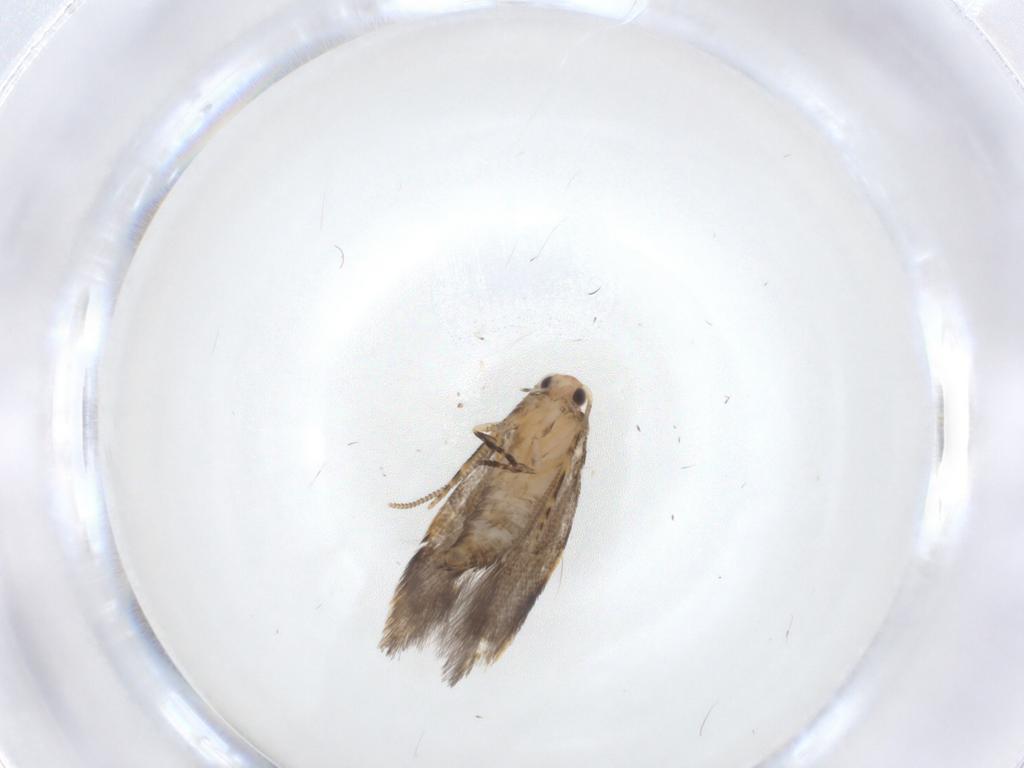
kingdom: Animalia
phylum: Arthropoda
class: Insecta
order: Lepidoptera
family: Tineidae
